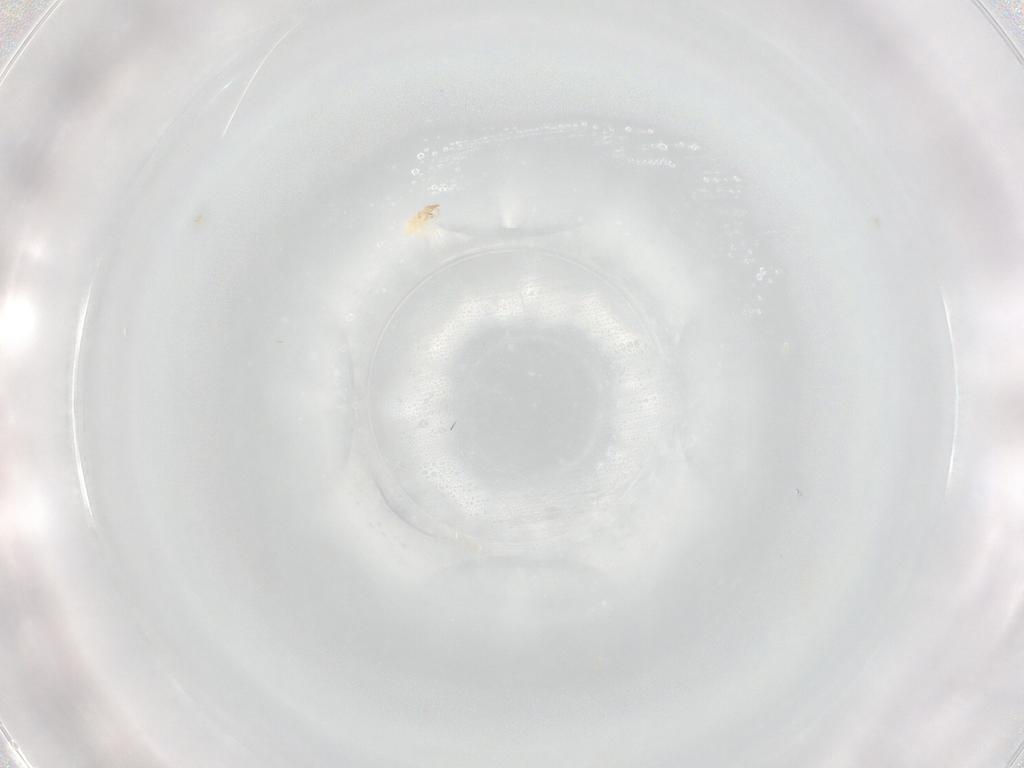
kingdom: Animalia
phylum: Arthropoda
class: Arachnida
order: Trombidiformes
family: Cunaxidae
